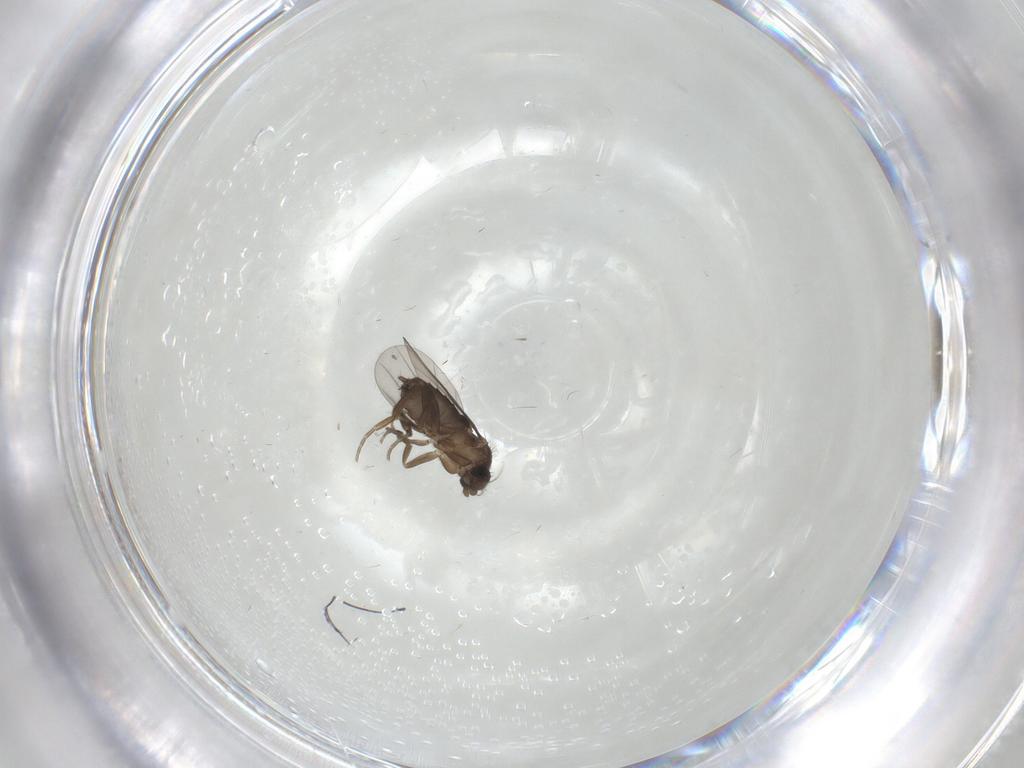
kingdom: Animalia
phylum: Arthropoda
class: Insecta
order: Diptera
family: Phoridae
